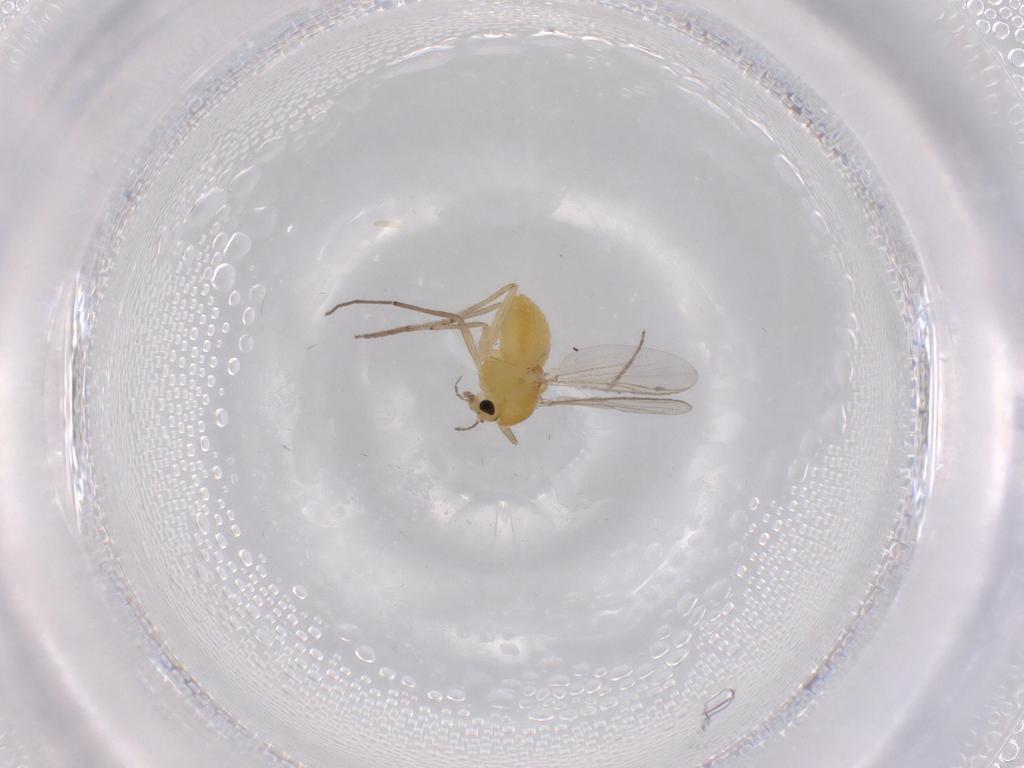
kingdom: Animalia
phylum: Arthropoda
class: Insecta
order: Diptera
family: Chironomidae
